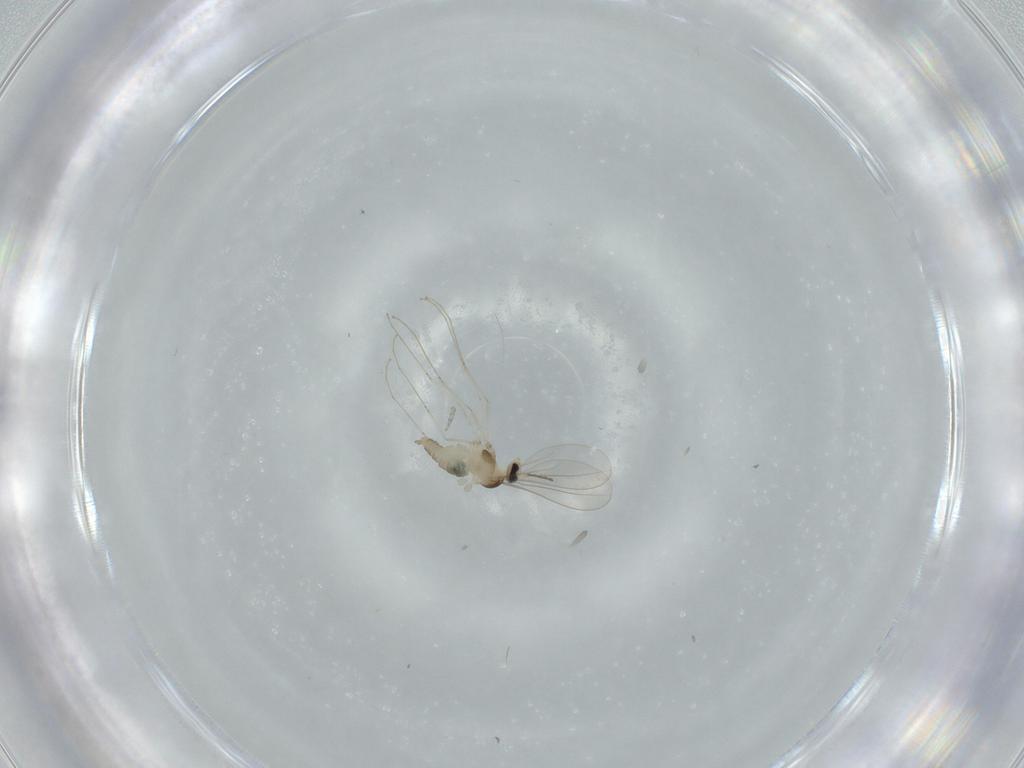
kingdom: Animalia
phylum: Arthropoda
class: Insecta
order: Diptera
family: Cecidomyiidae
